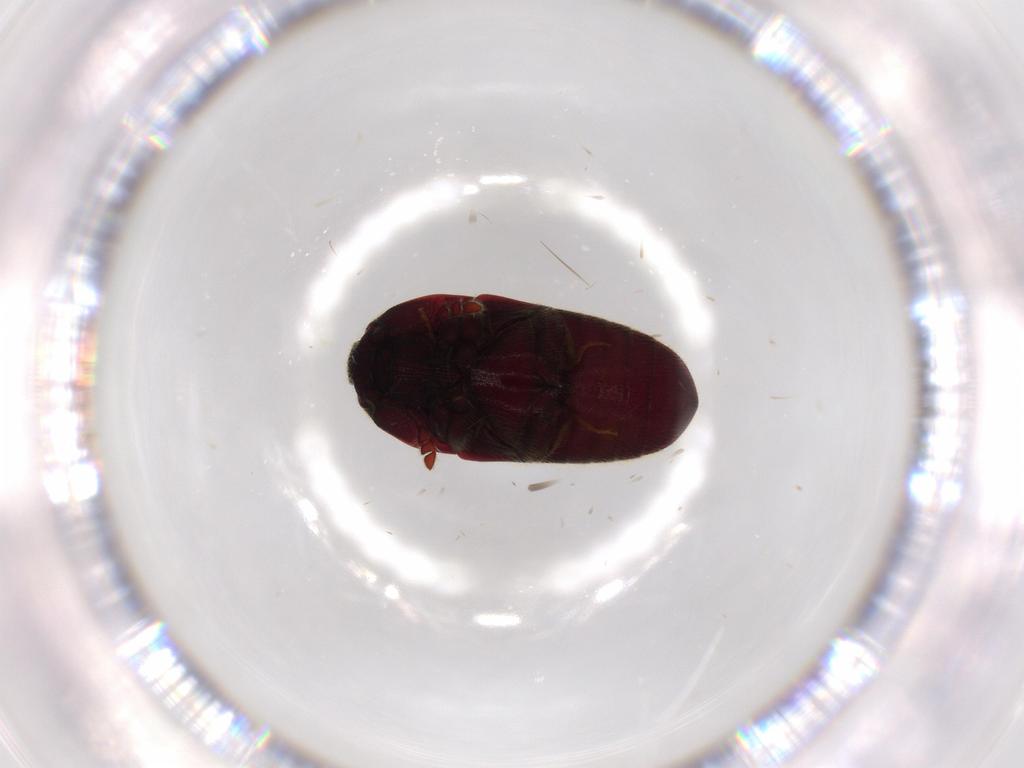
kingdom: Animalia
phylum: Arthropoda
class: Insecta
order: Coleoptera
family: Throscidae
